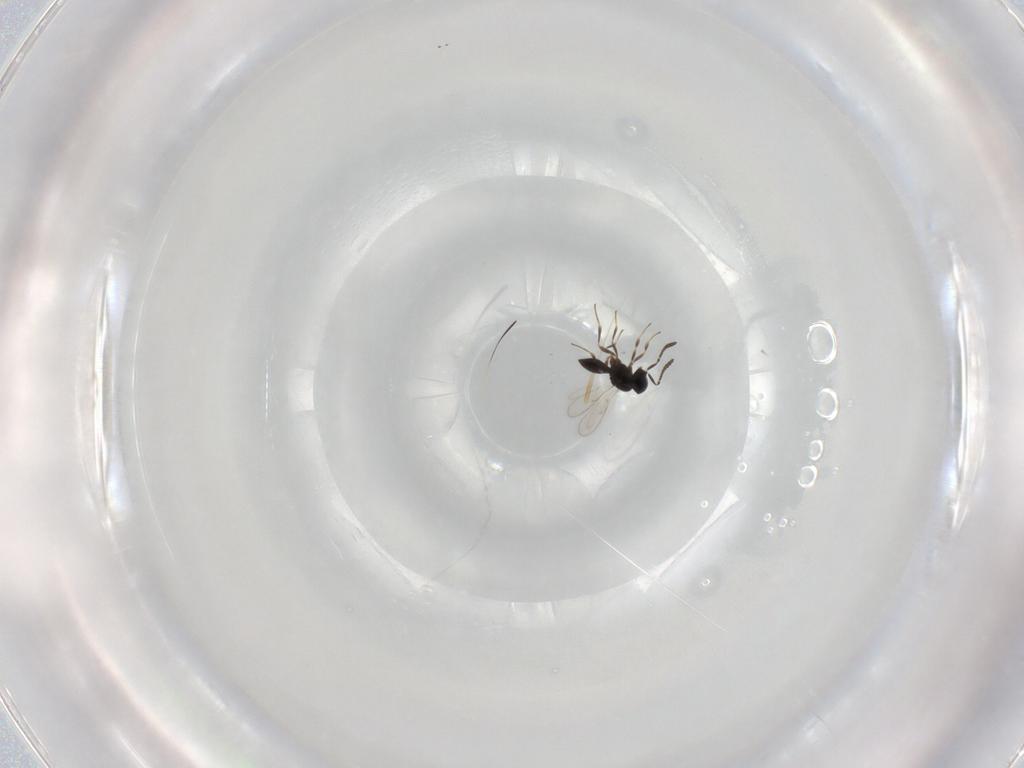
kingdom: Animalia
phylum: Arthropoda
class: Insecta
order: Hymenoptera
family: Scelionidae
